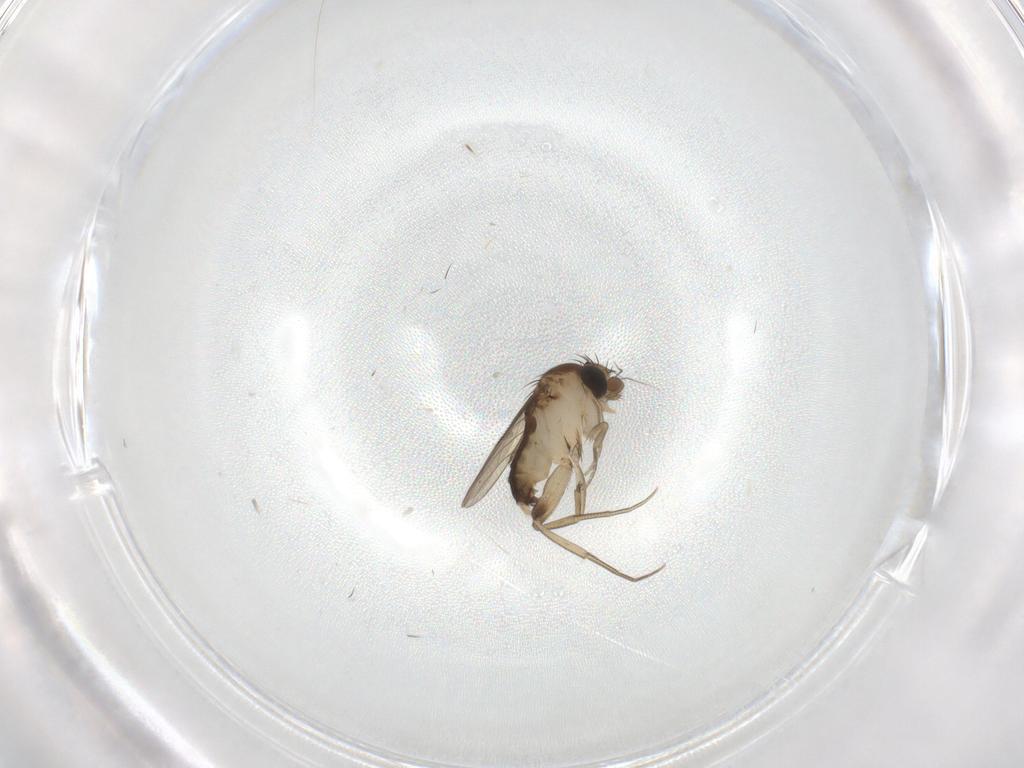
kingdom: Animalia
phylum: Arthropoda
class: Insecta
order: Diptera
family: Phoridae
